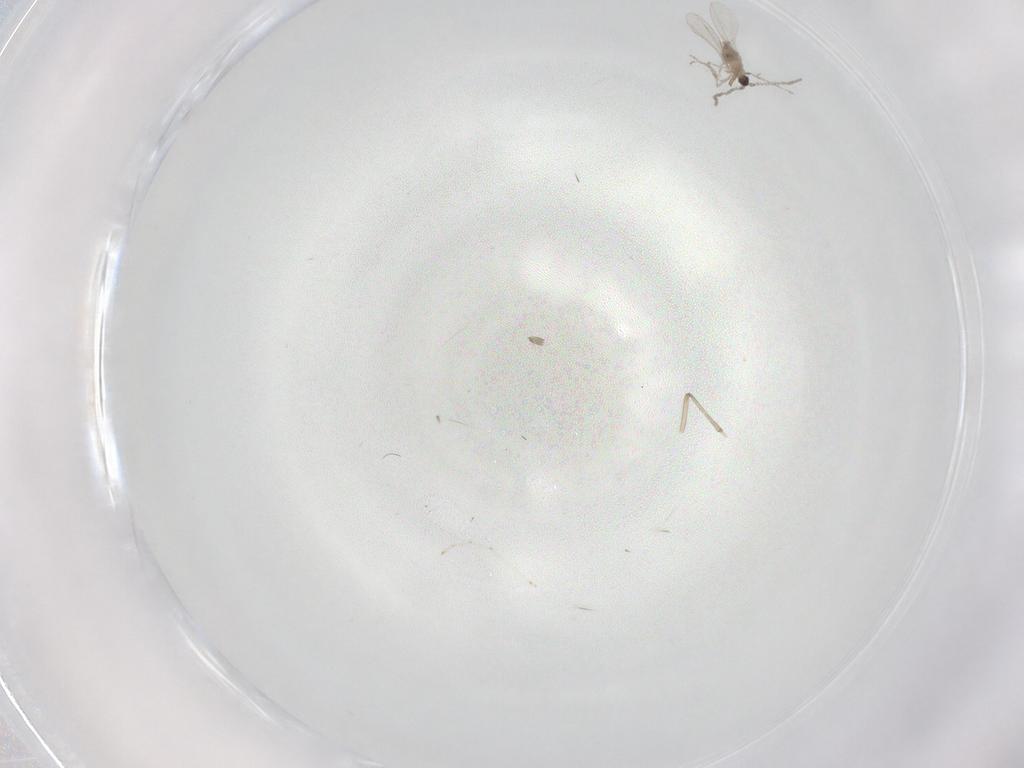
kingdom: Animalia
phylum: Arthropoda
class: Insecta
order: Diptera
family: Cecidomyiidae
